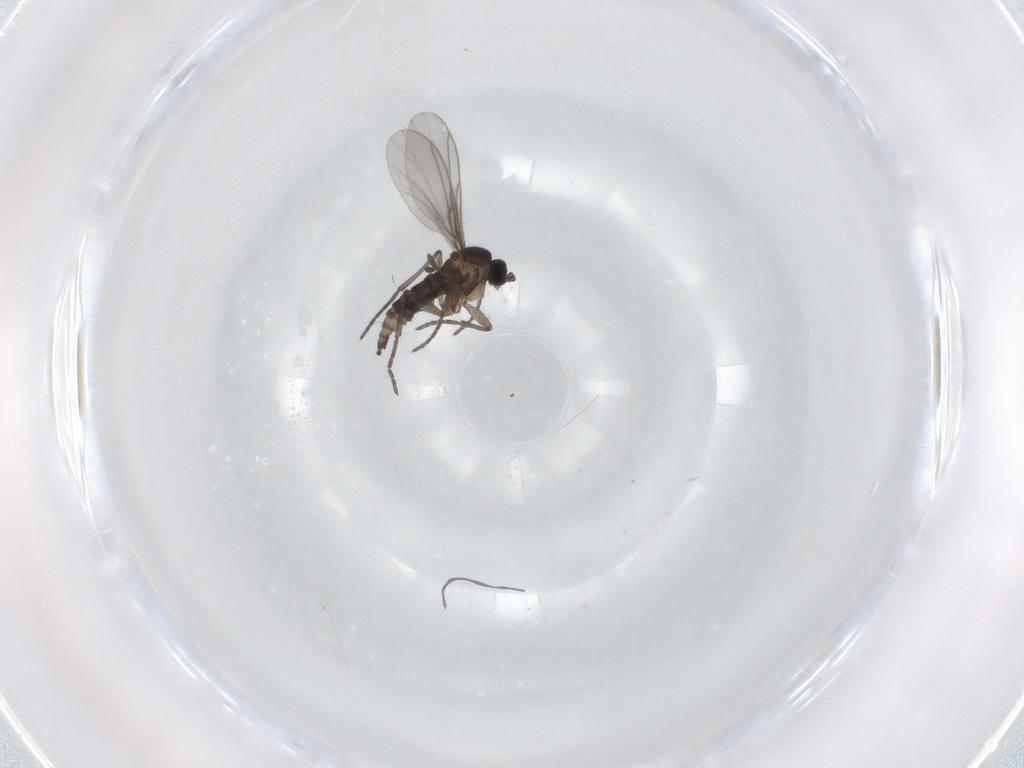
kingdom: Animalia
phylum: Arthropoda
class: Insecta
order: Diptera
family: Sciaridae
